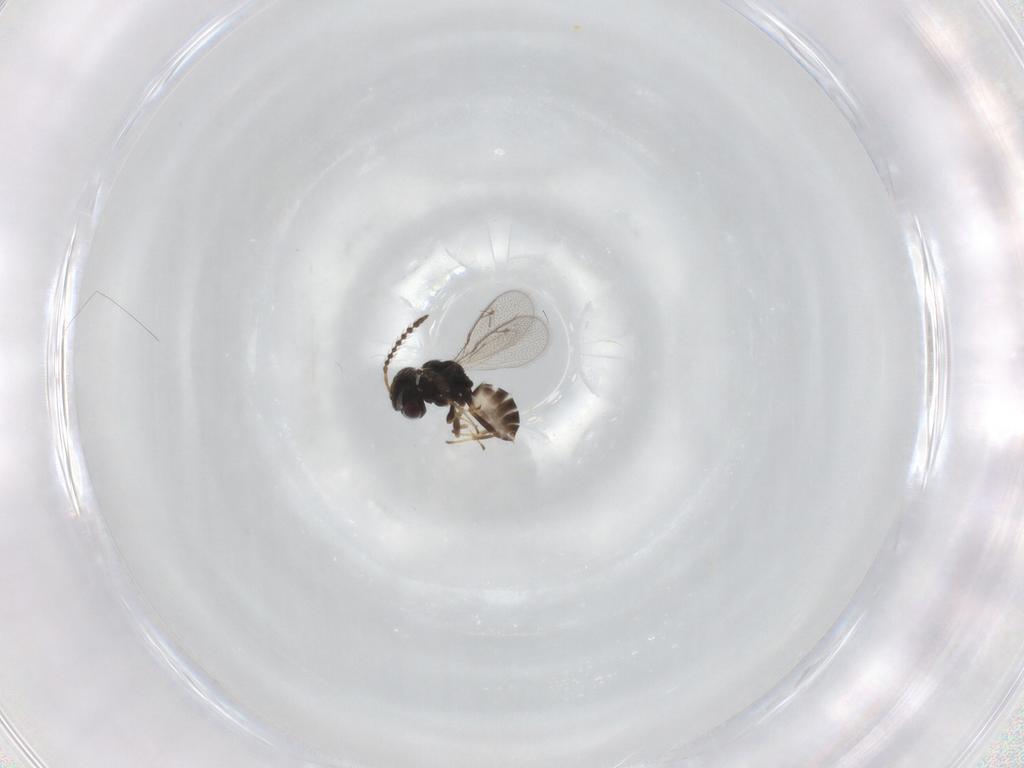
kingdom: Animalia
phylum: Arthropoda
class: Insecta
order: Hymenoptera
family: Pteromalidae
